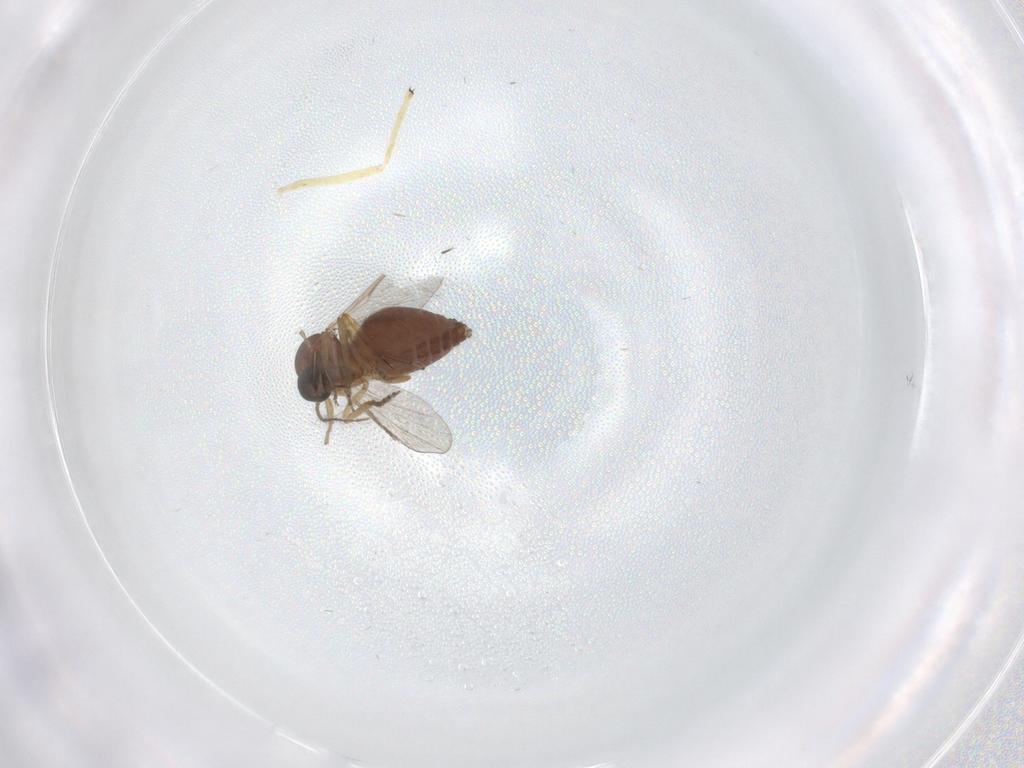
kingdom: Animalia
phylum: Arthropoda
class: Insecta
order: Diptera
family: Ceratopogonidae
